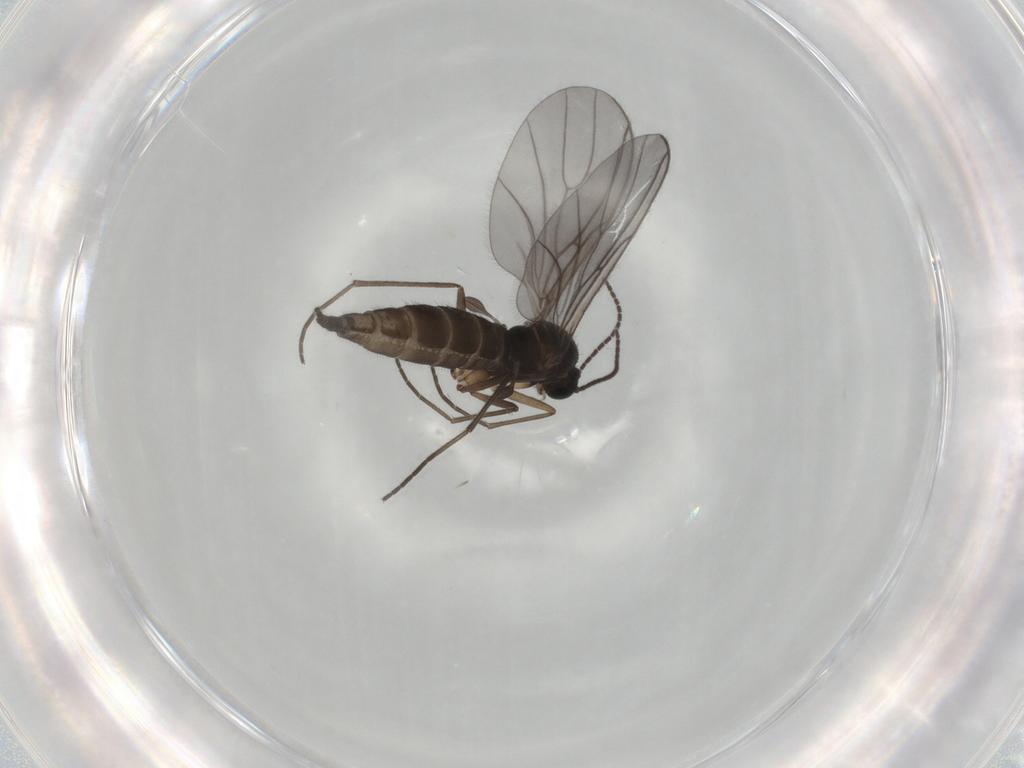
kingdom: Animalia
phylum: Arthropoda
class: Insecta
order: Diptera
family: Sciaridae
